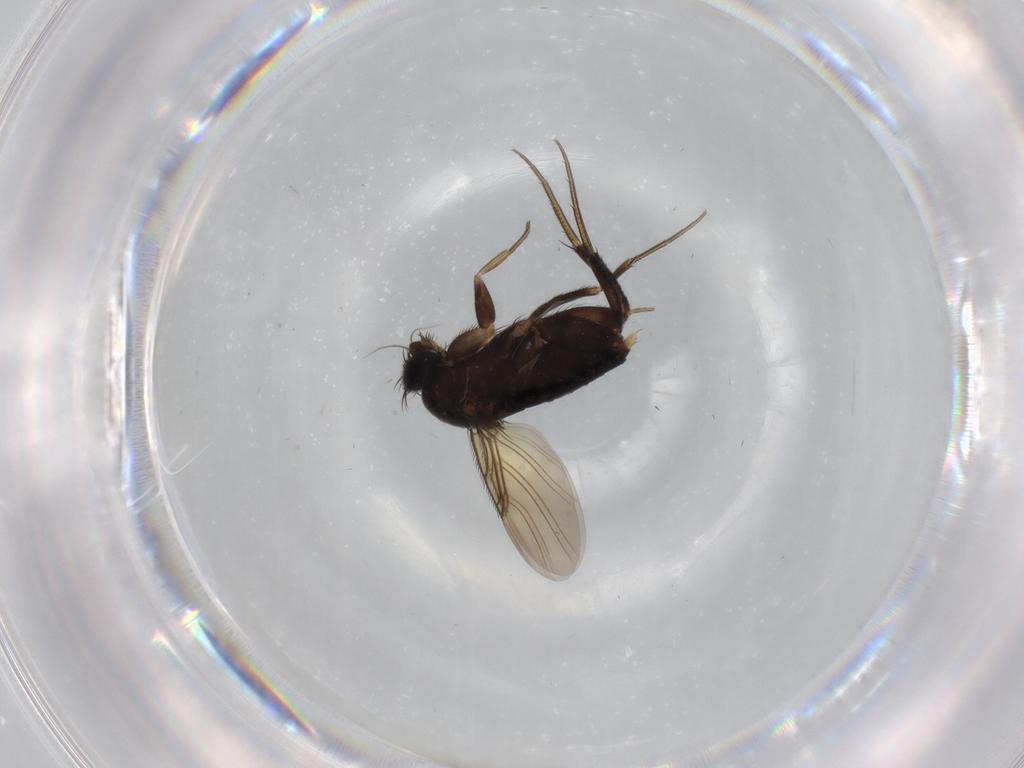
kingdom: Animalia
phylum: Arthropoda
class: Insecta
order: Diptera
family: Phoridae
